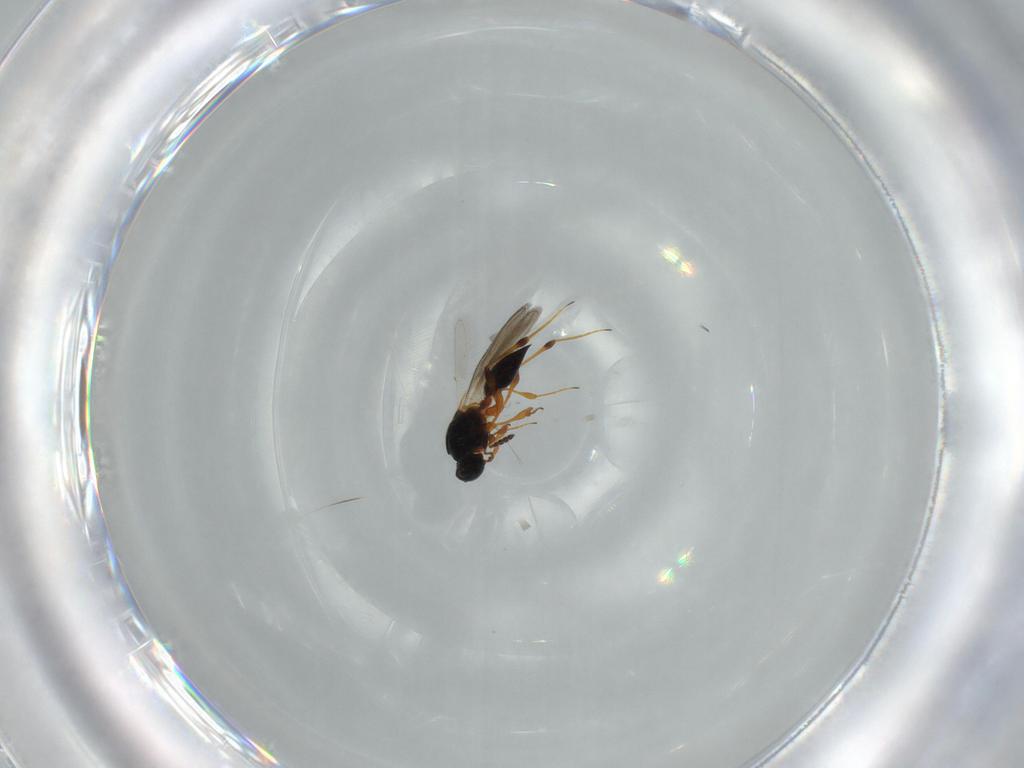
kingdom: Animalia
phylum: Arthropoda
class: Insecta
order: Hymenoptera
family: Platygastridae
